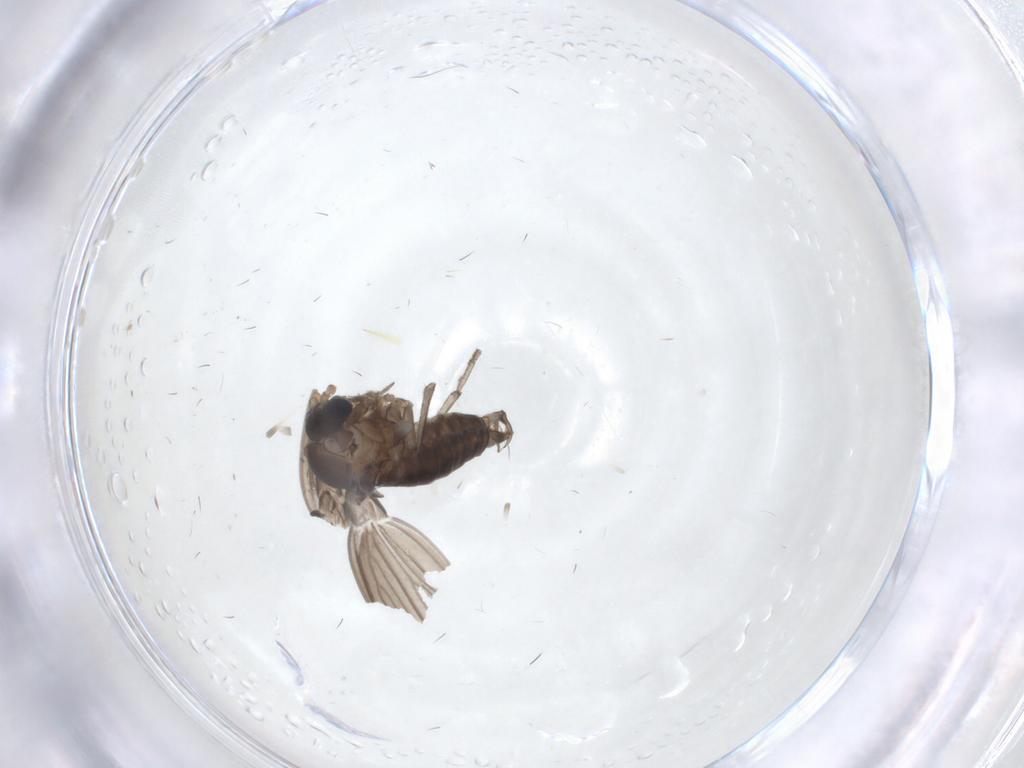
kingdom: Animalia
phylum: Arthropoda
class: Insecta
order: Diptera
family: Psychodidae
